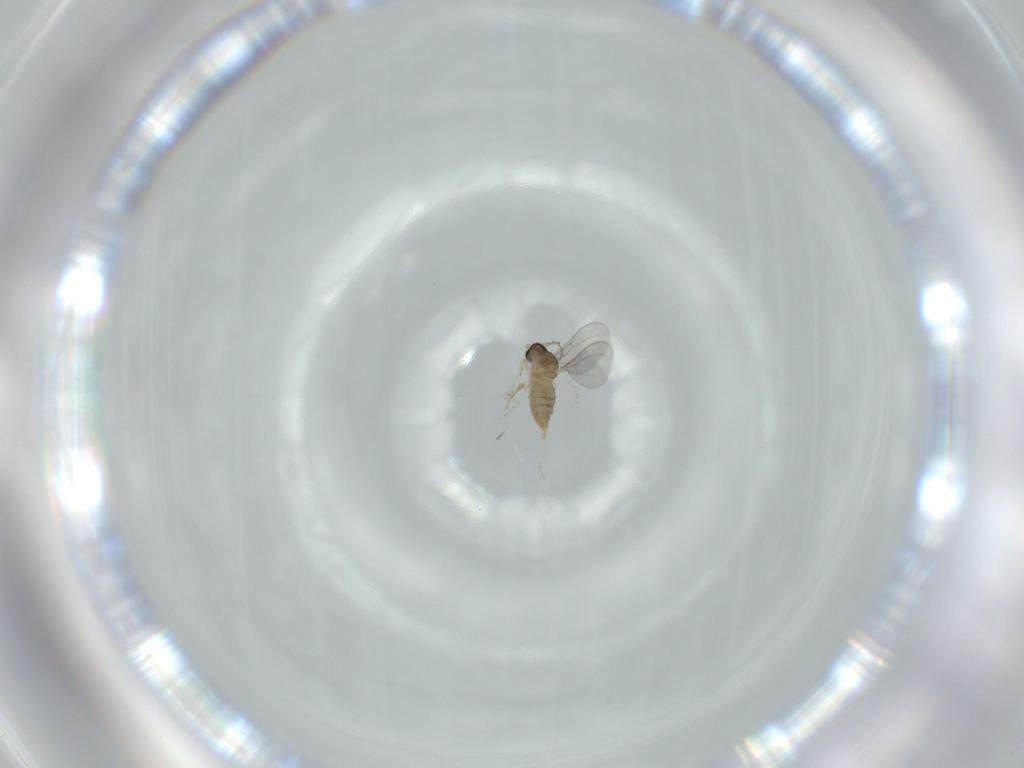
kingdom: Animalia
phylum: Arthropoda
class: Insecta
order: Diptera
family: Cecidomyiidae
